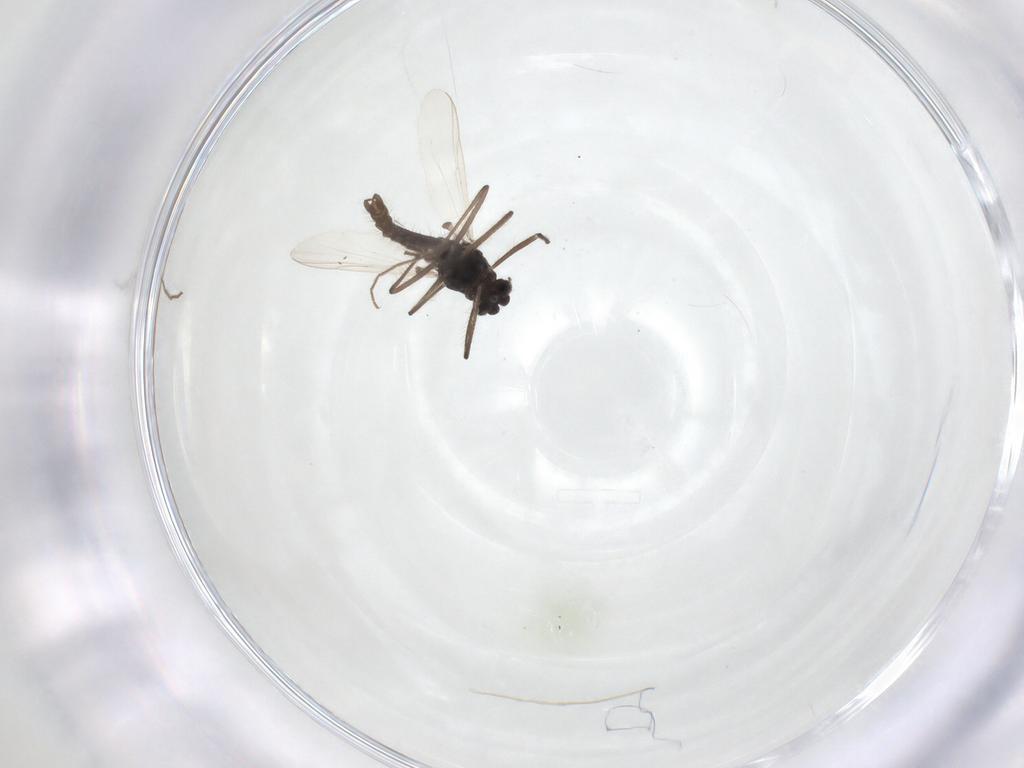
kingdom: Animalia
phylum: Arthropoda
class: Insecta
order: Diptera
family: Chironomidae
